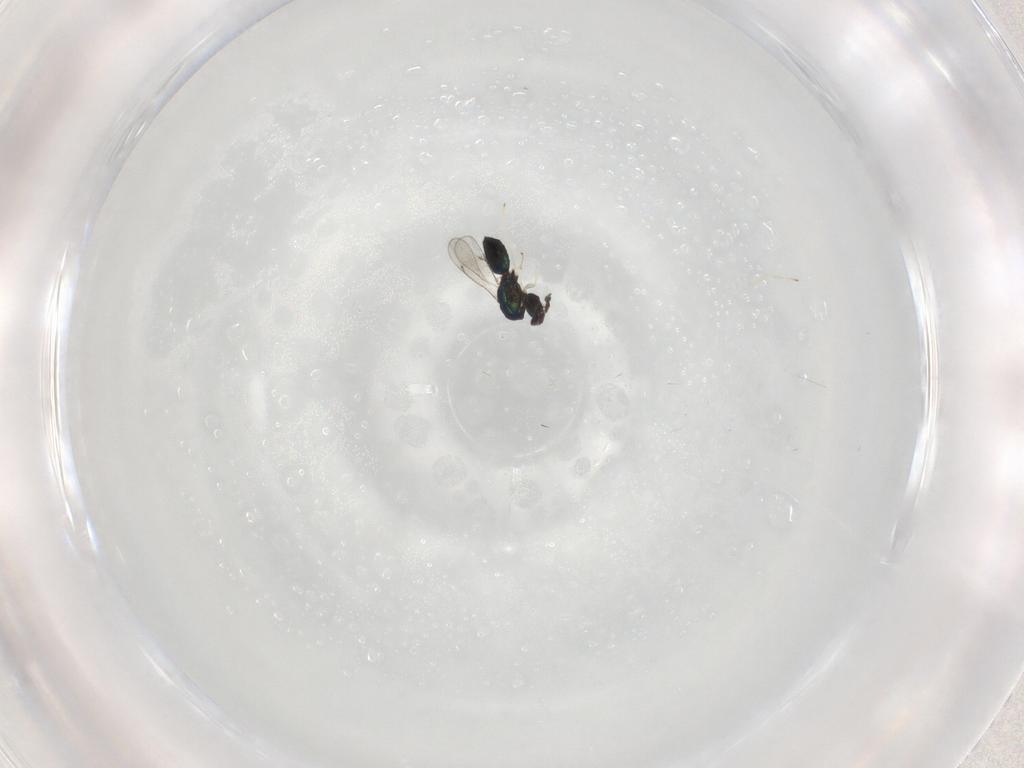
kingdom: Animalia
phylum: Arthropoda
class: Insecta
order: Hymenoptera
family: Eulophidae
